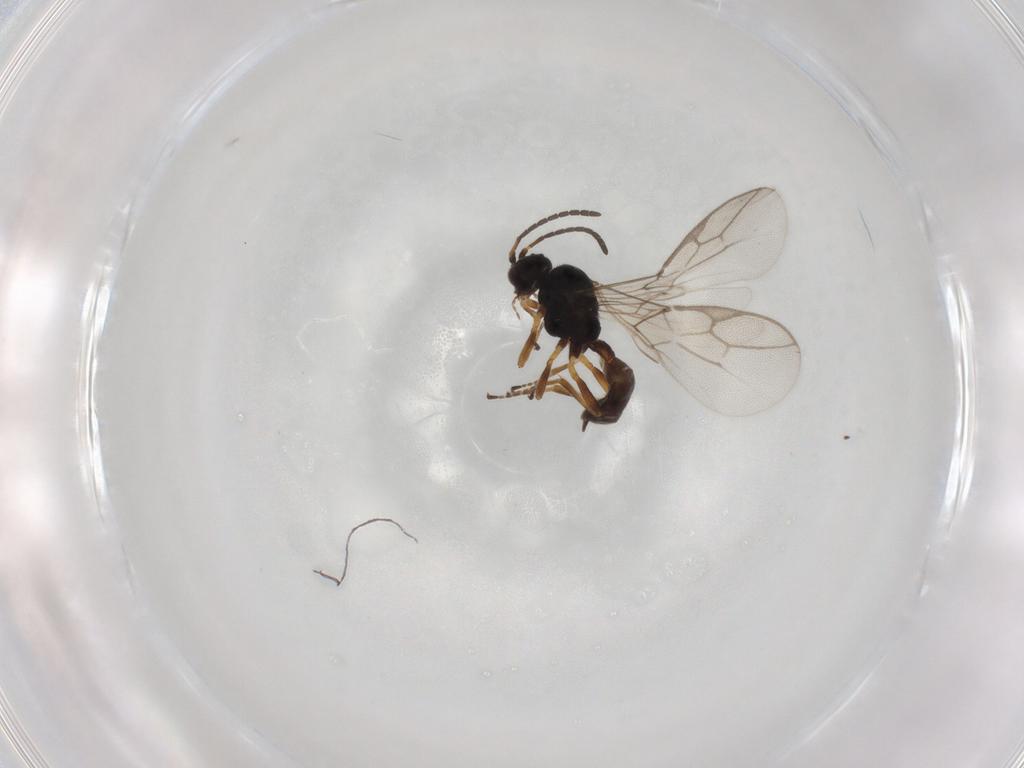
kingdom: Animalia
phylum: Arthropoda
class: Insecta
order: Hymenoptera
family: Braconidae
